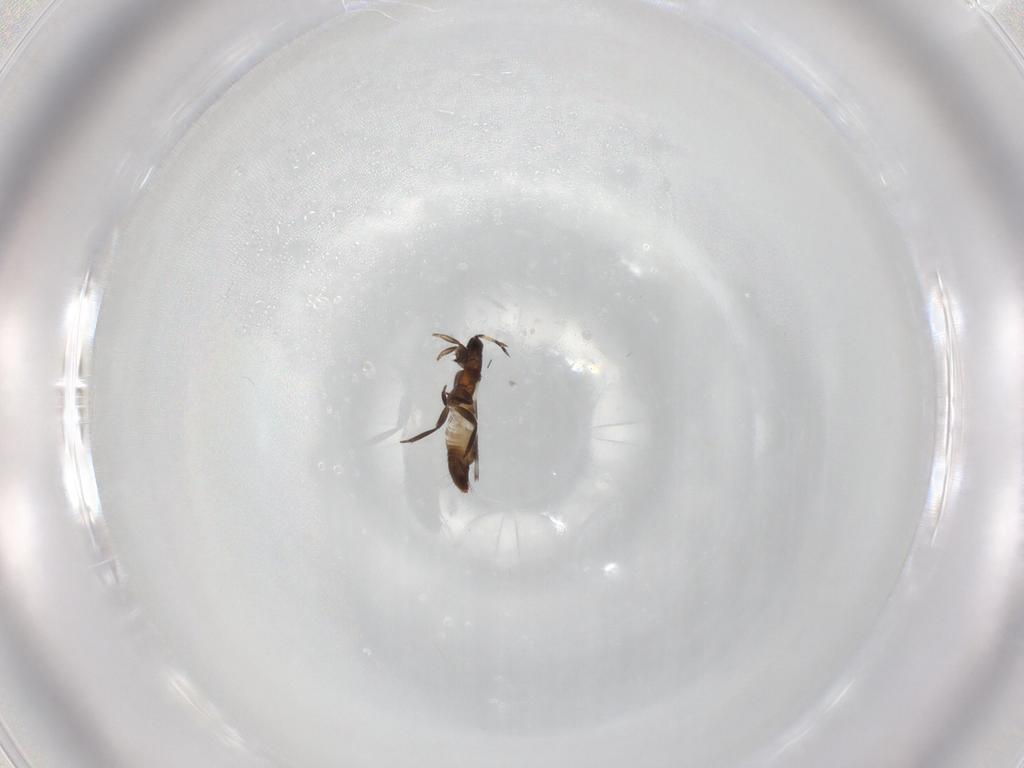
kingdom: Animalia
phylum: Arthropoda
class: Insecta
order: Thysanoptera
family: Aeolothripidae
